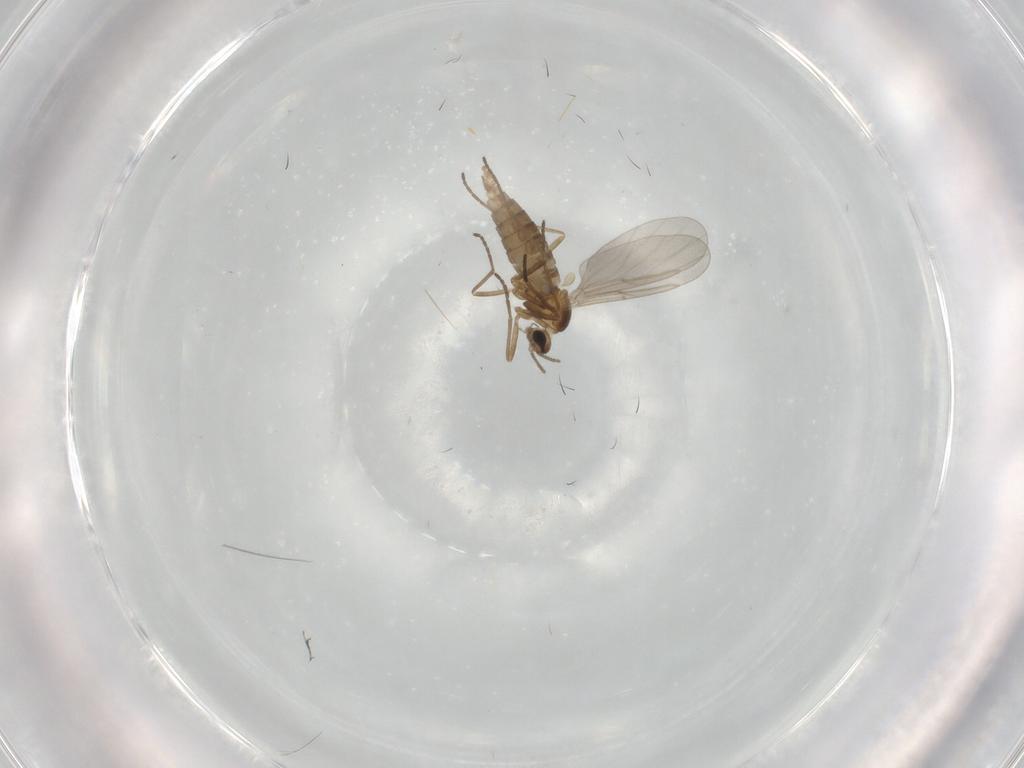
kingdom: Animalia
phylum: Arthropoda
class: Insecta
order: Diptera
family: Cecidomyiidae
